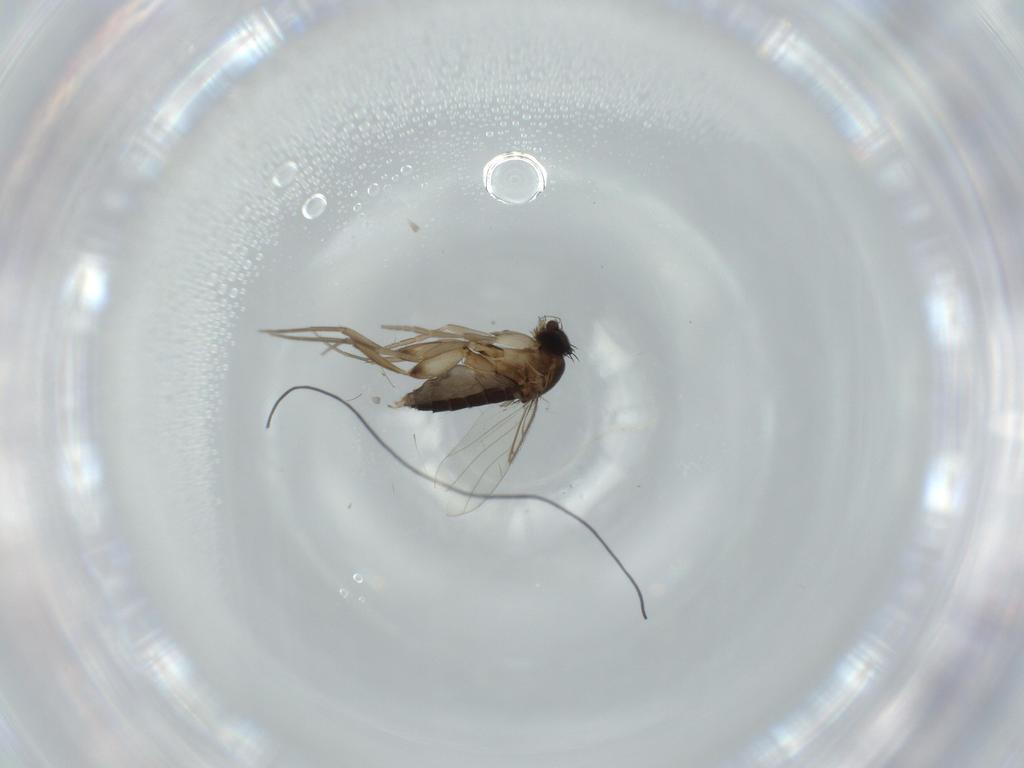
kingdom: Animalia
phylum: Arthropoda
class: Insecta
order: Diptera
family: Phoridae
